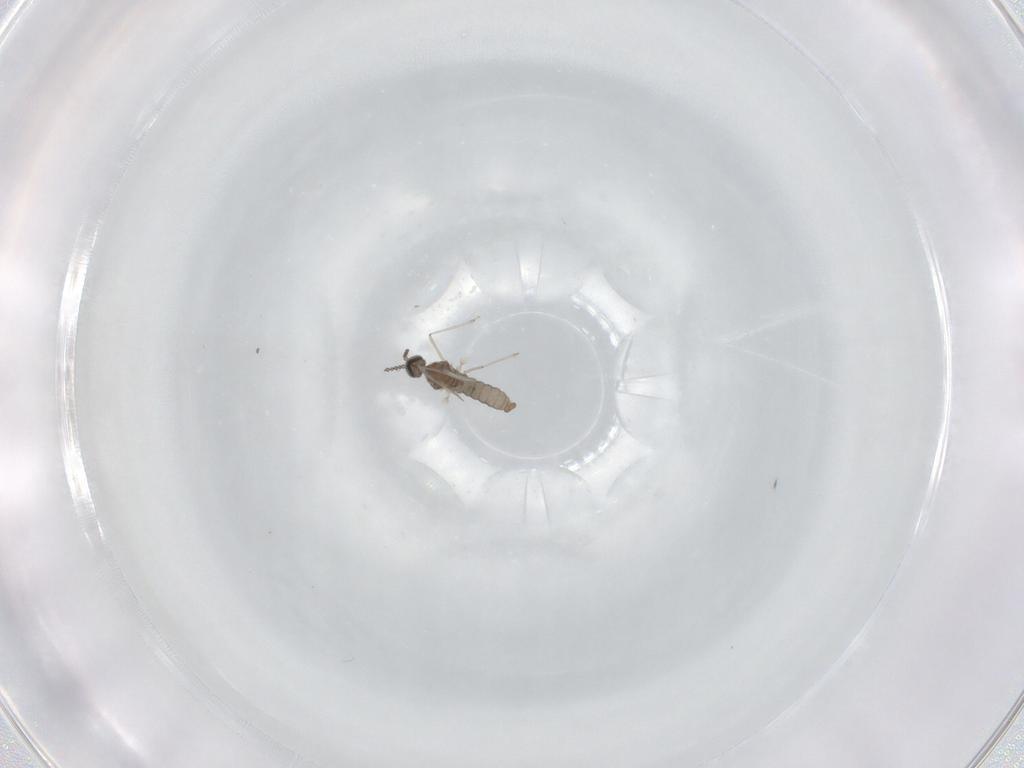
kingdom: Animalia
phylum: Arthropoda
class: Insecta
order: Diptera
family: Cecidomyiidae
